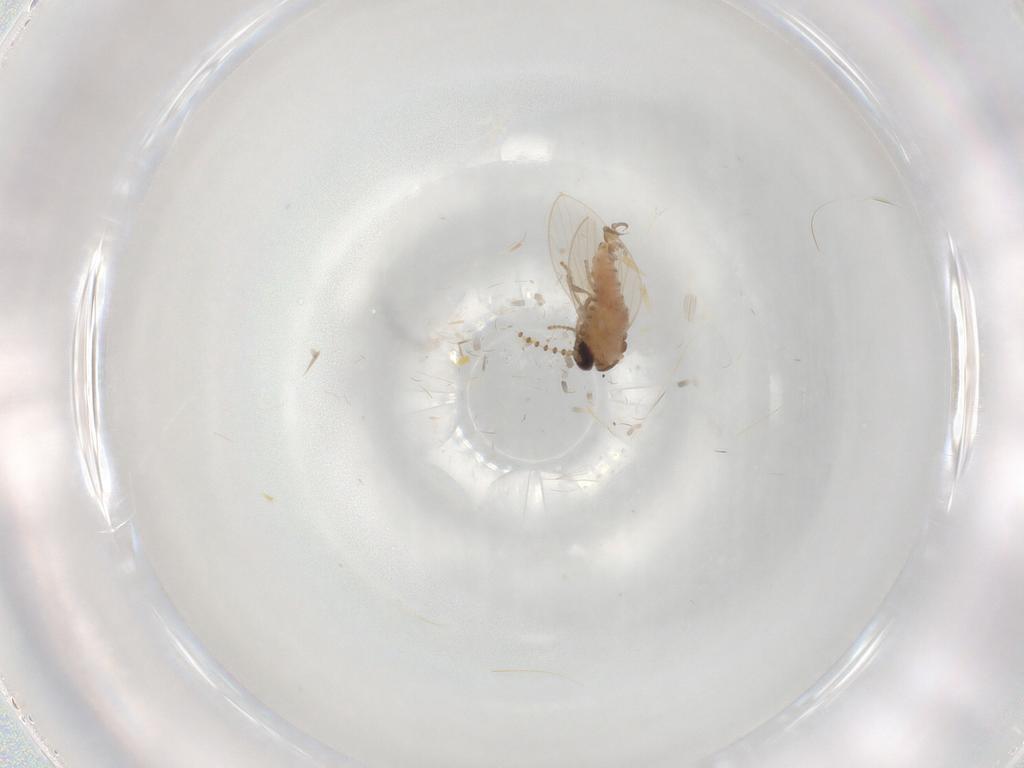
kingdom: Animalia
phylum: Arthropoda
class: Insecta
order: Diptera
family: Psychodidae
